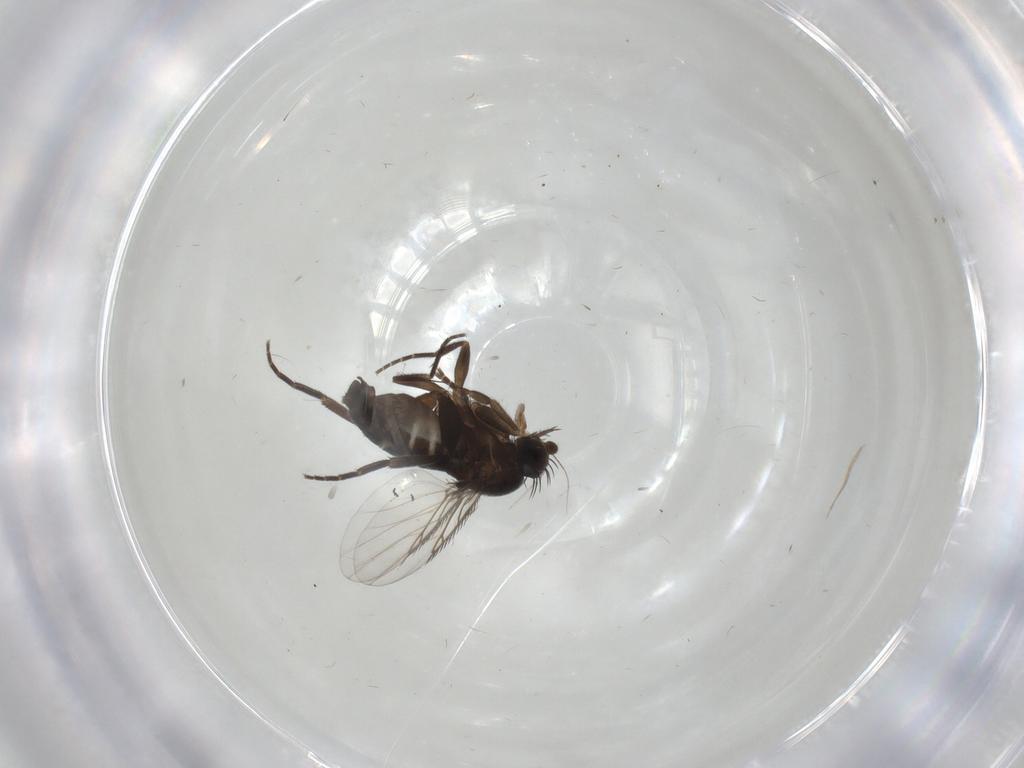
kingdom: Animalia
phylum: Arthropoda
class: Insecta
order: Diptera
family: Phoridae
